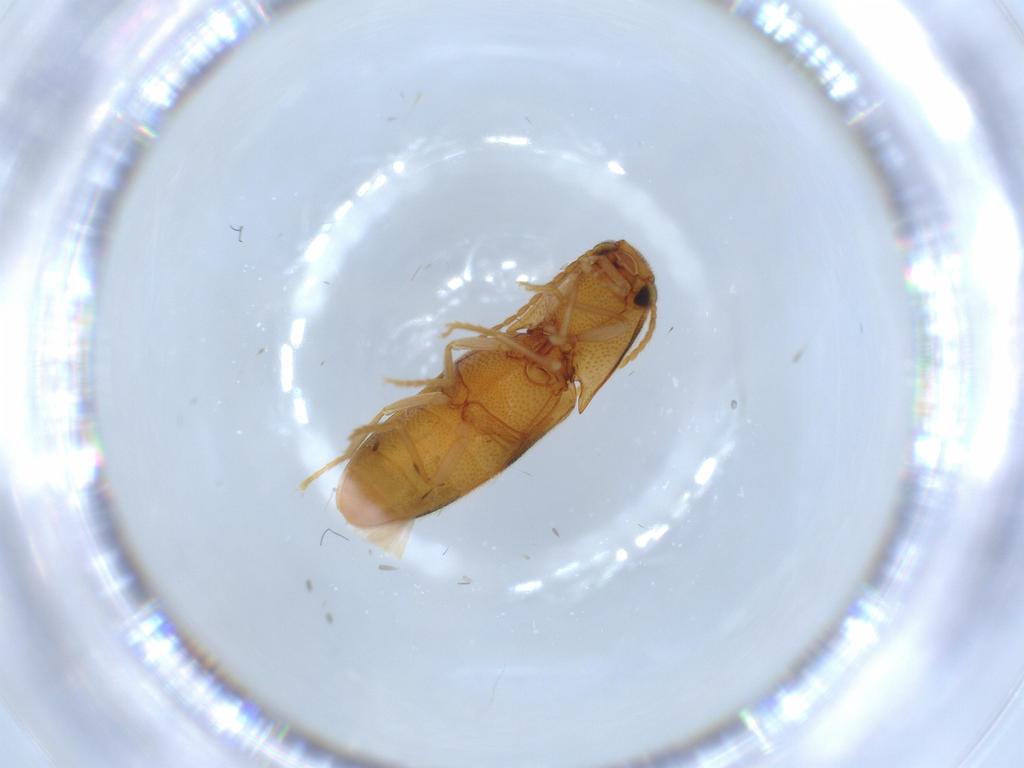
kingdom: Animalia
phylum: Arthropoda
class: Insecta
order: Coleoptera
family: Elateridae
